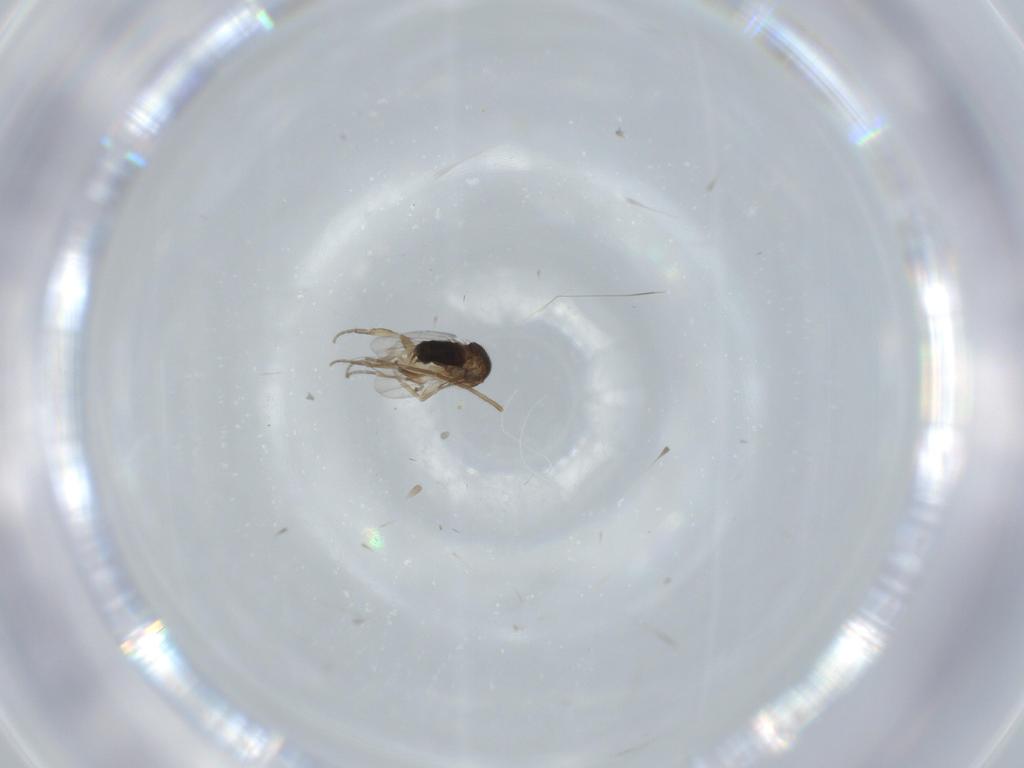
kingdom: Animalia
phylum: Arthropoda
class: Insecta
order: Diptera
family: Phoridae
